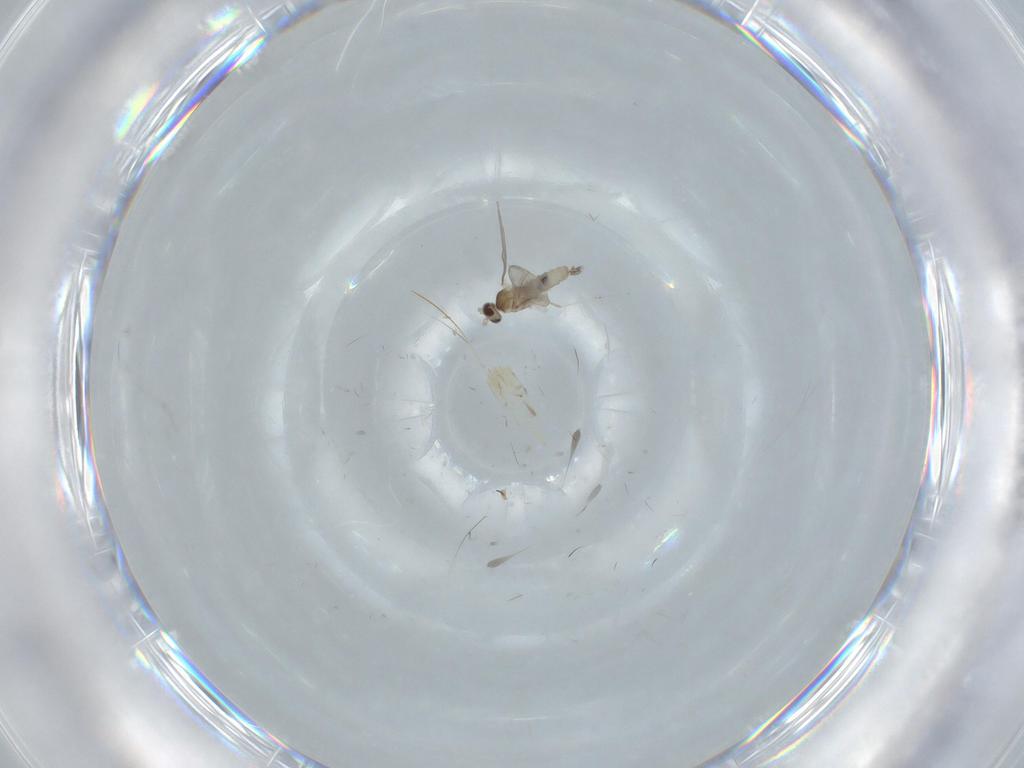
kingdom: Animalia
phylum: Arthropoda
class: Insecta
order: Diptera
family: Cecidomyiidae
